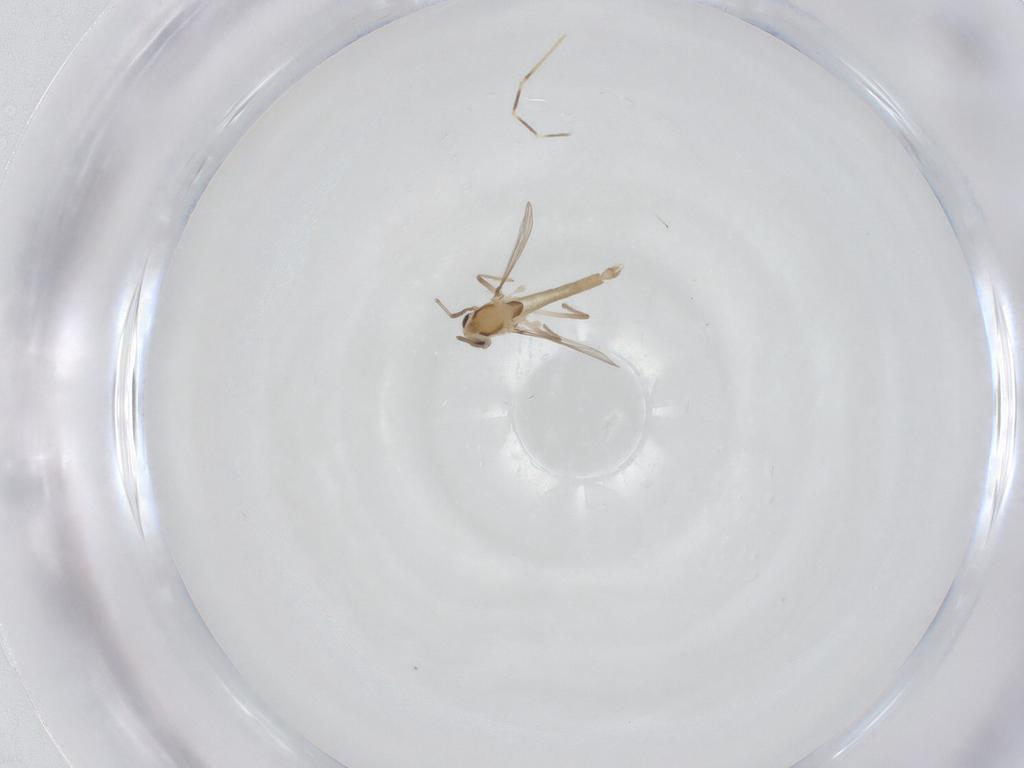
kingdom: Animalia
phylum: Arthropoda
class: Insecta
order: Diptera
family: Chironomidae
